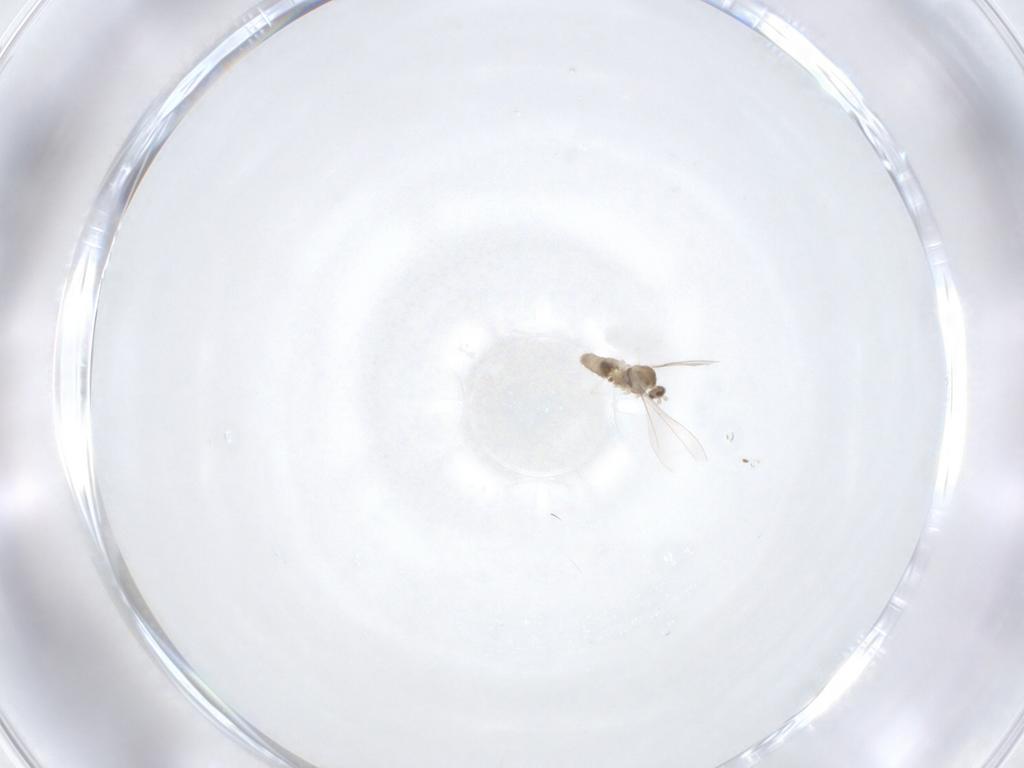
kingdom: Animalia
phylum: Arthropoda
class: Insecta
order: Diptera
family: Cecidomyiidae
